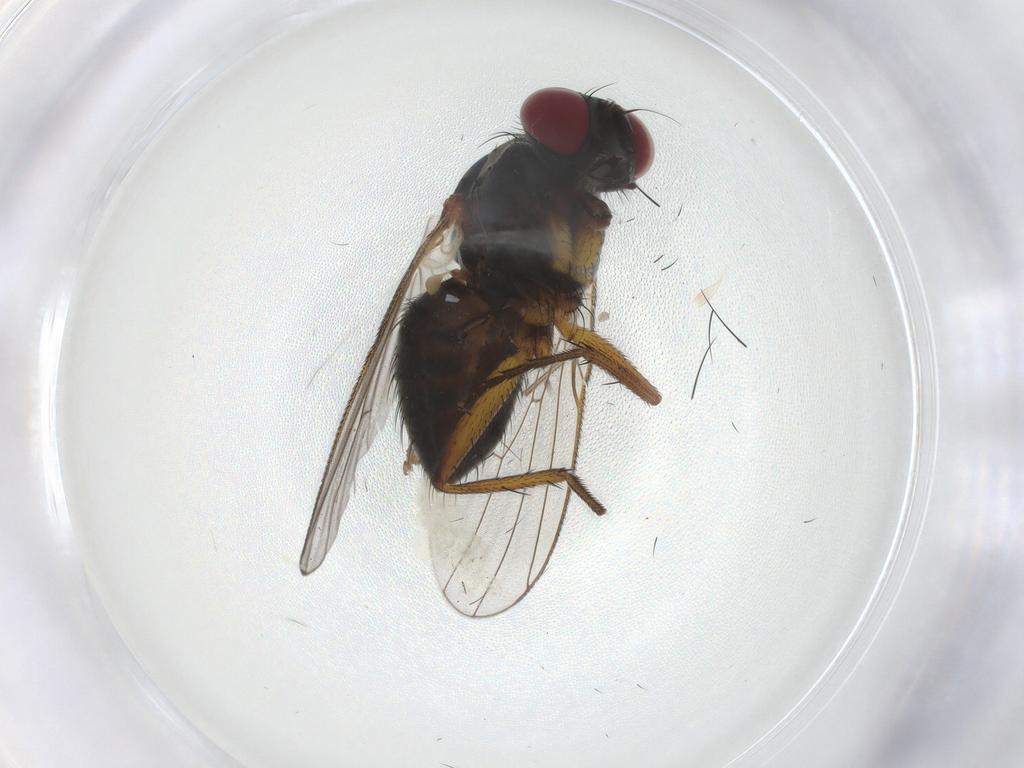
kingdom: Animalia
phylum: Arthropoda
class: Insecta
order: Diptera
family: Muscidae
